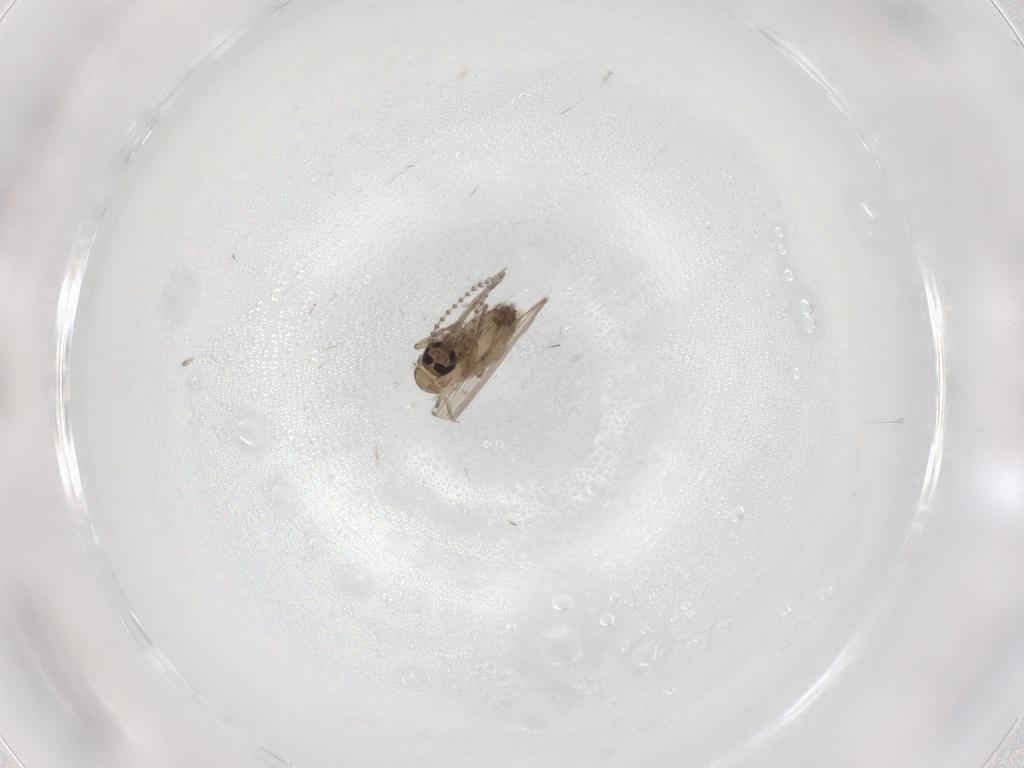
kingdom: Animalia
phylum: Arthropoda
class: Insecta
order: Diptera
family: Psychodidae
